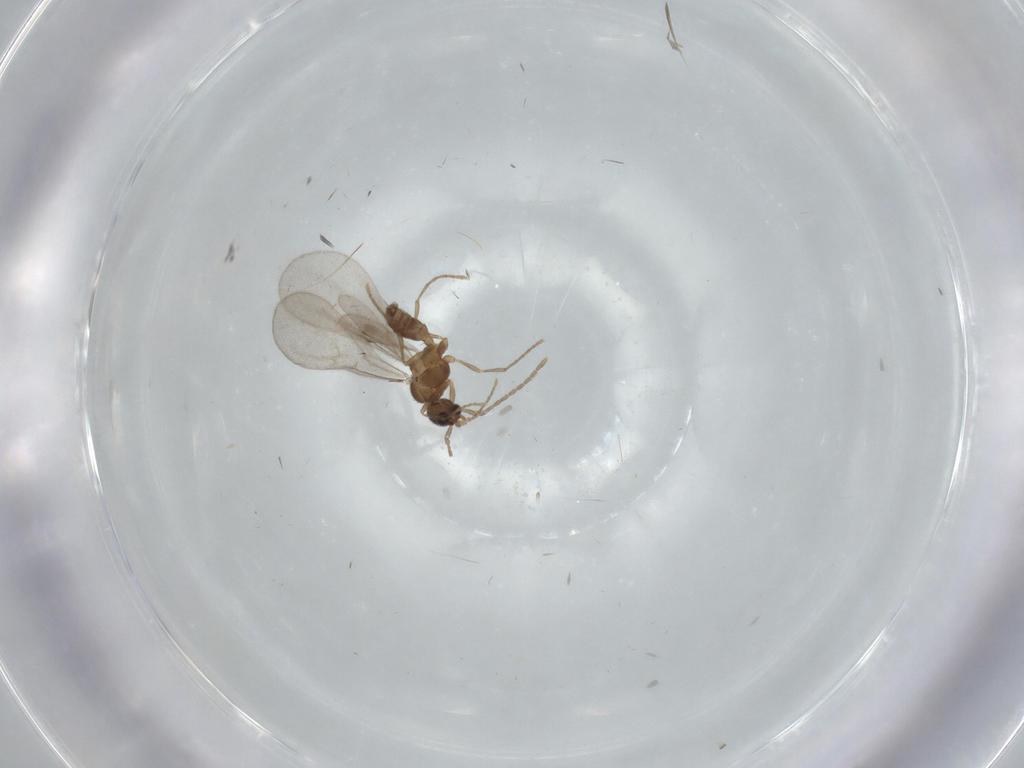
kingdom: Animalia
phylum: Arthropoda
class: Insecta
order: Hymenoptera
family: Formicidae
